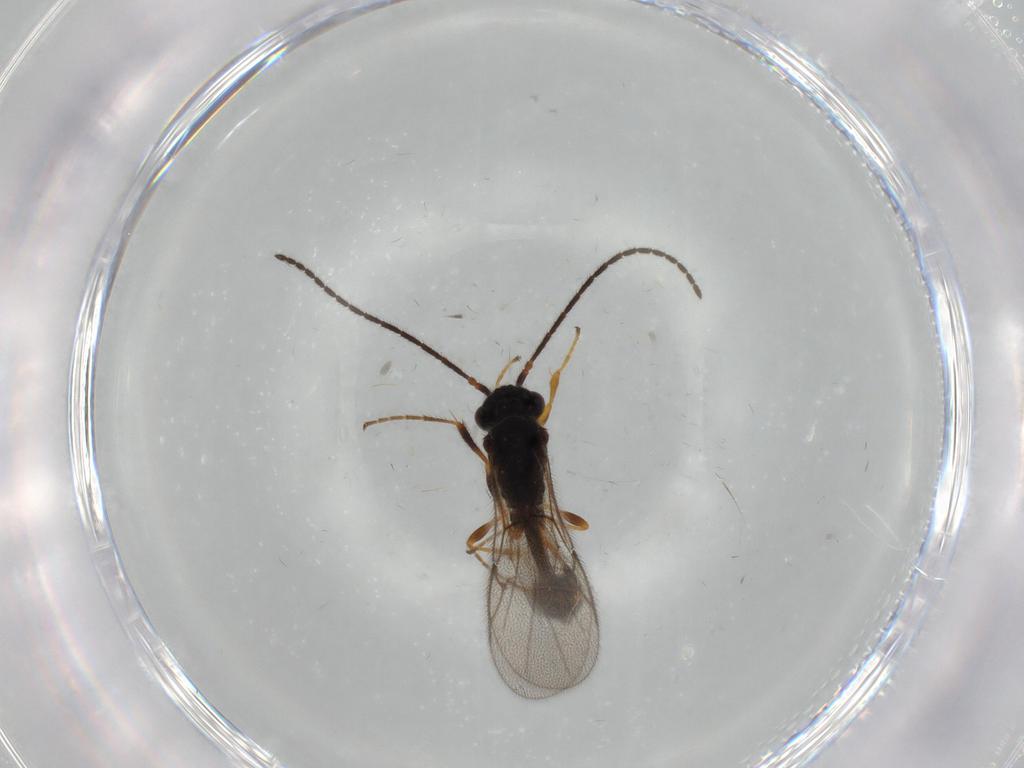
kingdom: Animalia
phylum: Arthropoda
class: Insecta
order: Hymenoptera
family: Diapriidae
